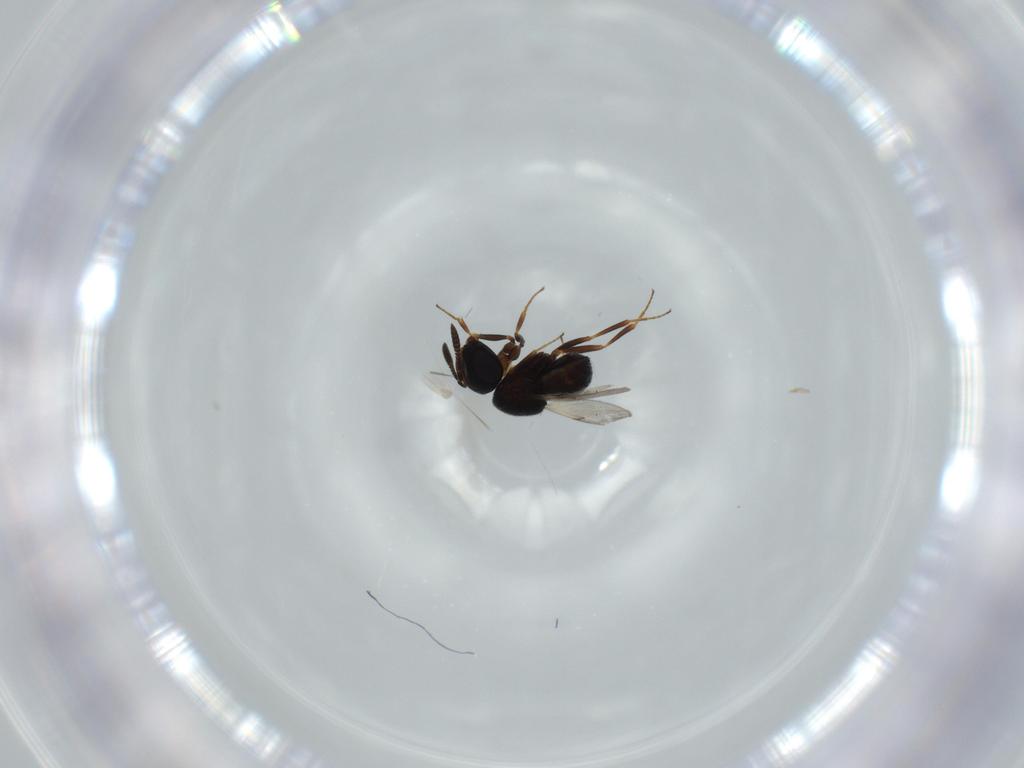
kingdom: Animalia
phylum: Arthropoda
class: Insecta
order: Hymenoptera
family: Scelionidae
